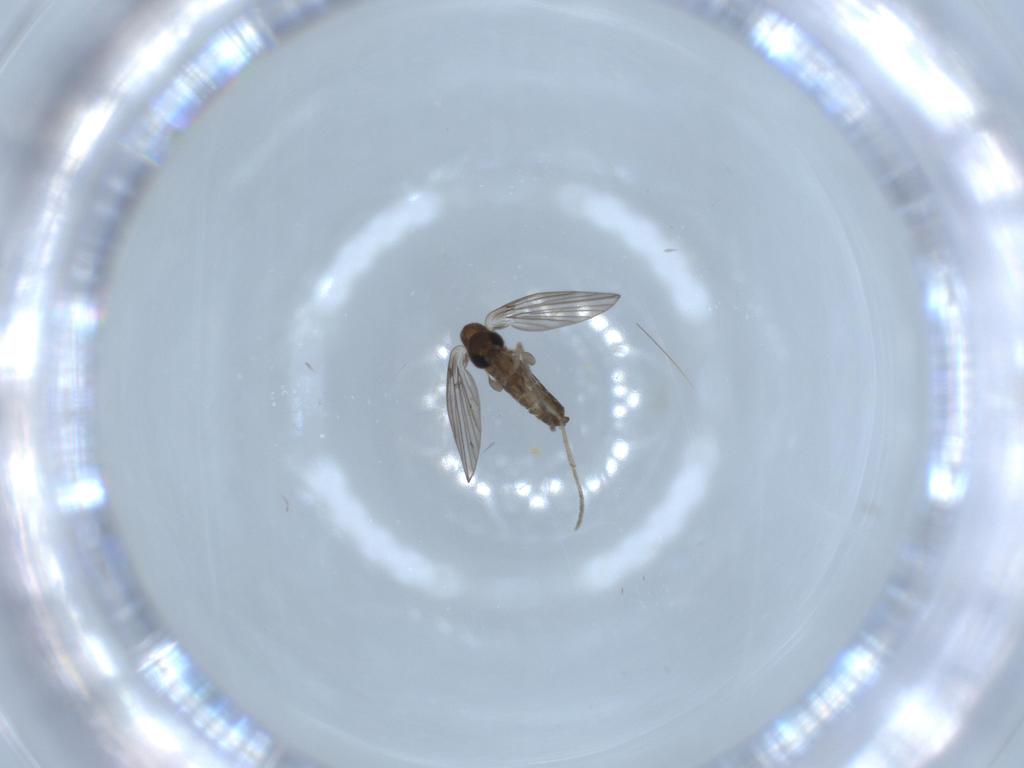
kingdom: Animalia
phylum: Arthropoda
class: Insecta
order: Diptera
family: Psychodidae
